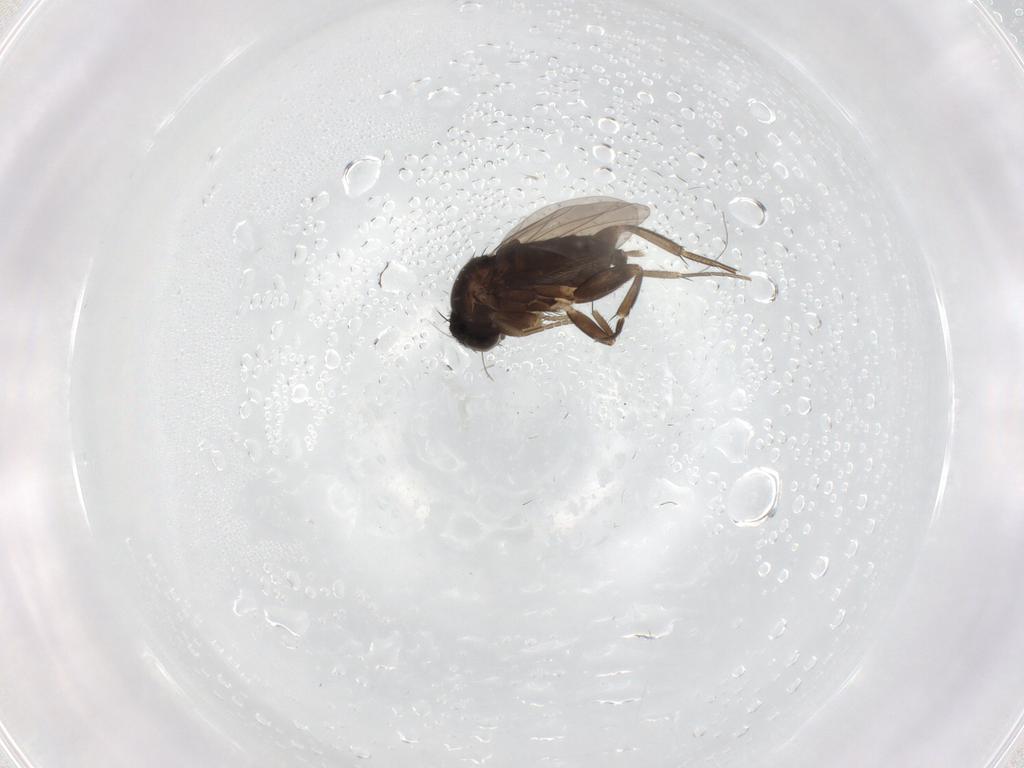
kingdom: Animalia
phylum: Arthropoda
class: Insecta
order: Diptera
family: Phoridae
